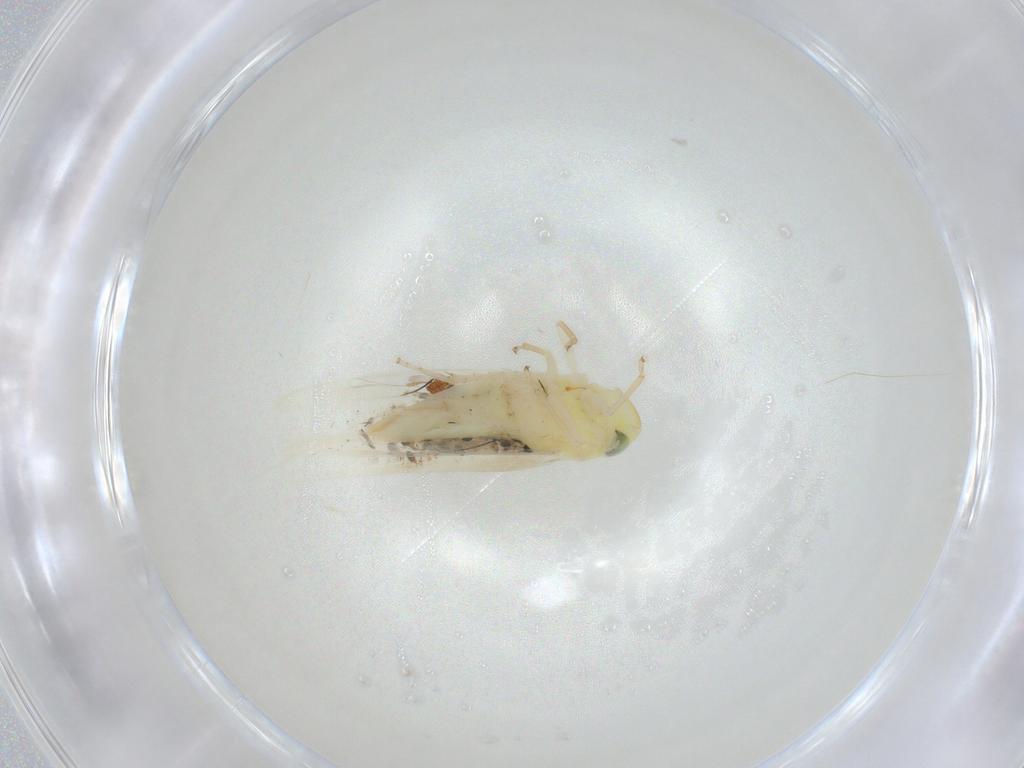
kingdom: Animalia
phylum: Arthropoda
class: Insecta
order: Hemiptera
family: Cicadellidae
